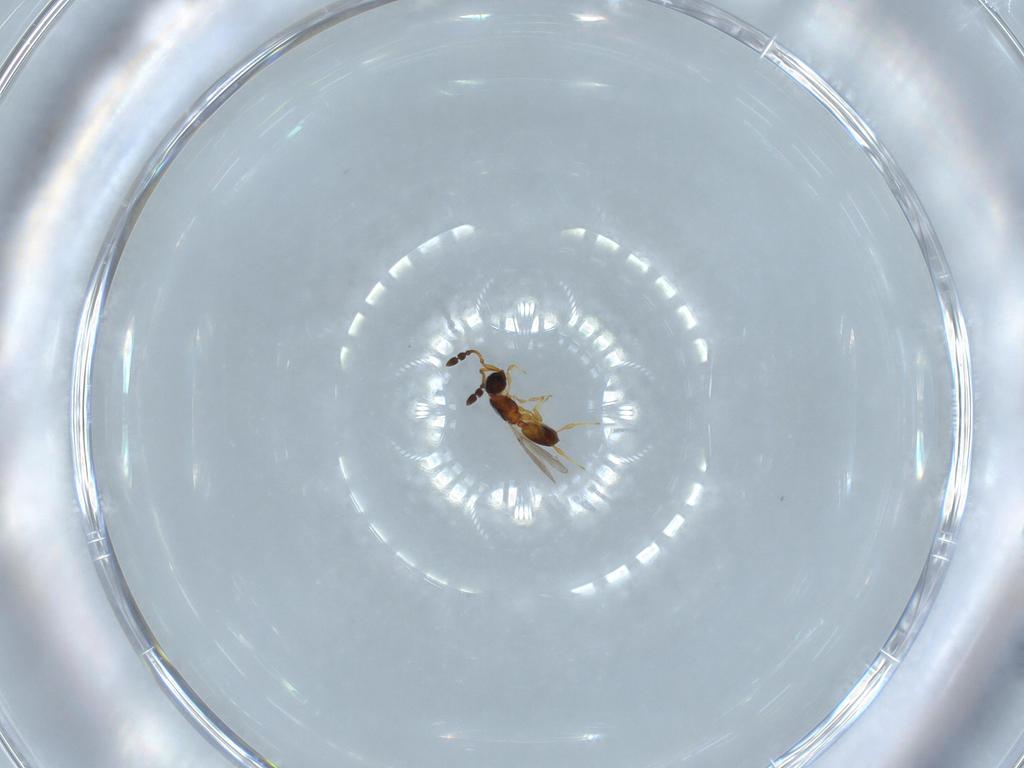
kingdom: Animalia
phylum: Arthropoda
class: Insecta
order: Hymenoptera
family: Diapriidae
